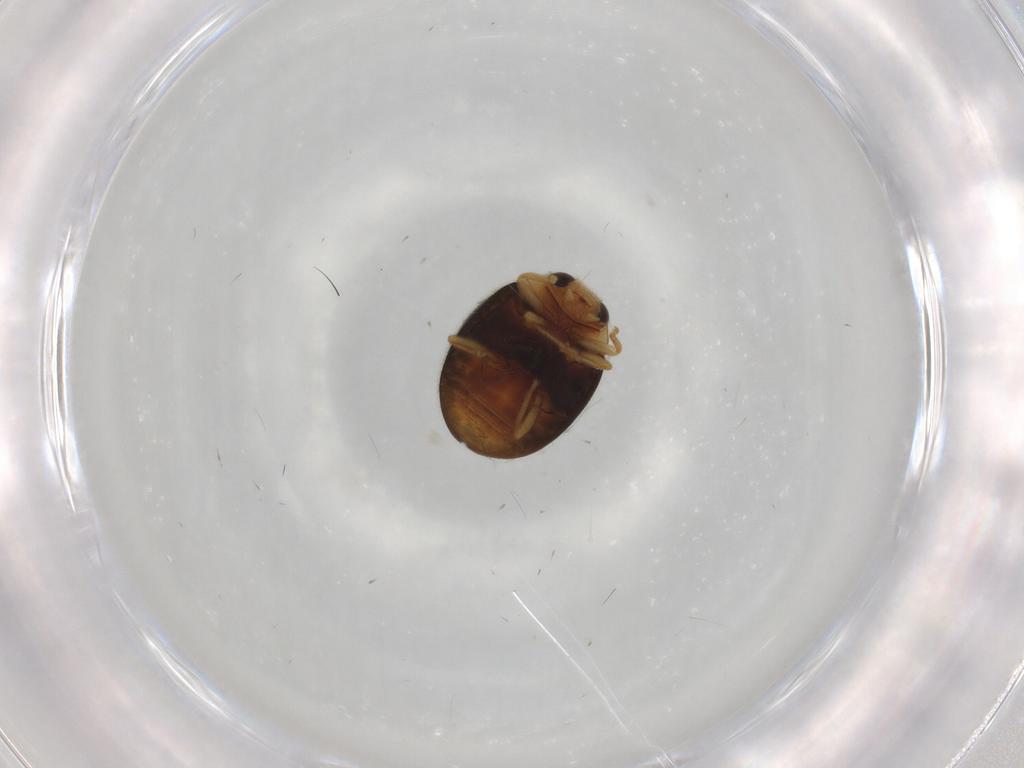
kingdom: Animalia
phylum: Arthropoda
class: Insecta
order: Coleoptera
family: Coccinellidae
